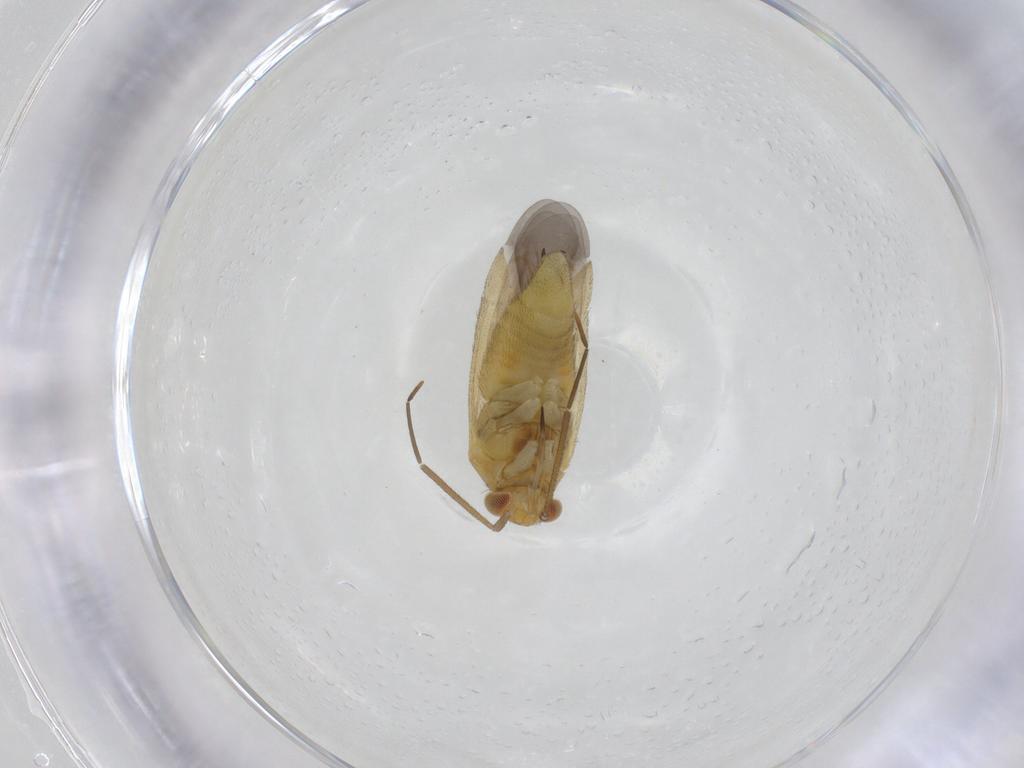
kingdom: Animalia
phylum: Arthropoda
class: Insecta
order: Hemiptera
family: Miridae
